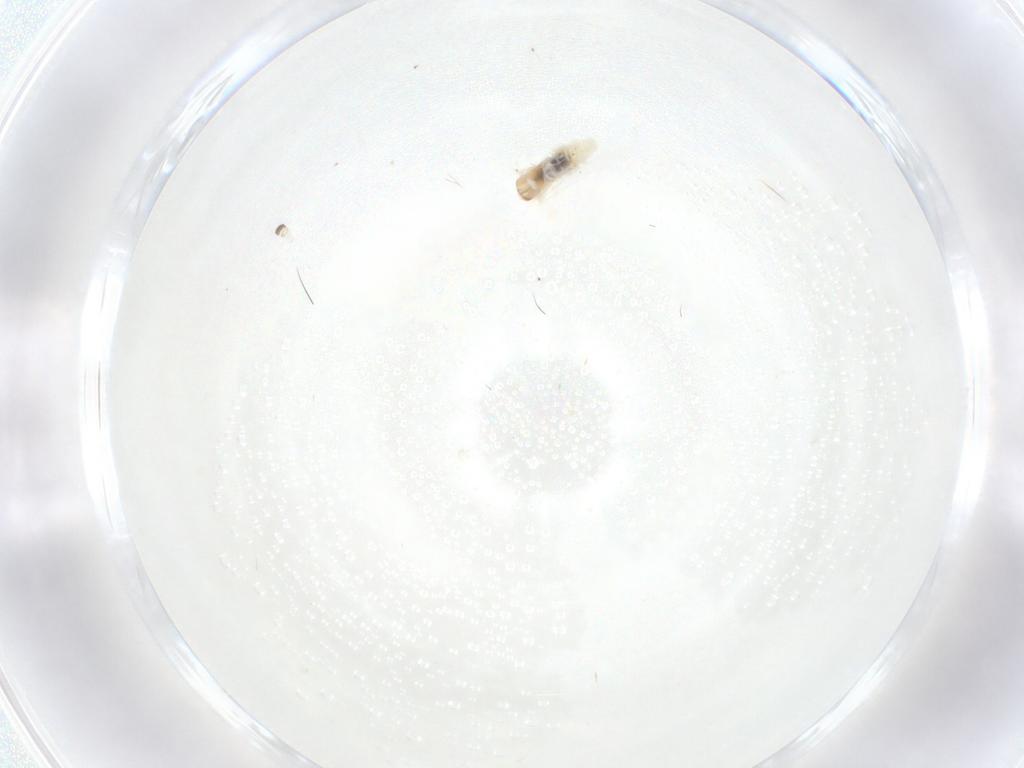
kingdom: Animalia
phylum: Arthropoda
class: Insecta
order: Diptera
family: Cecidomyiidae
